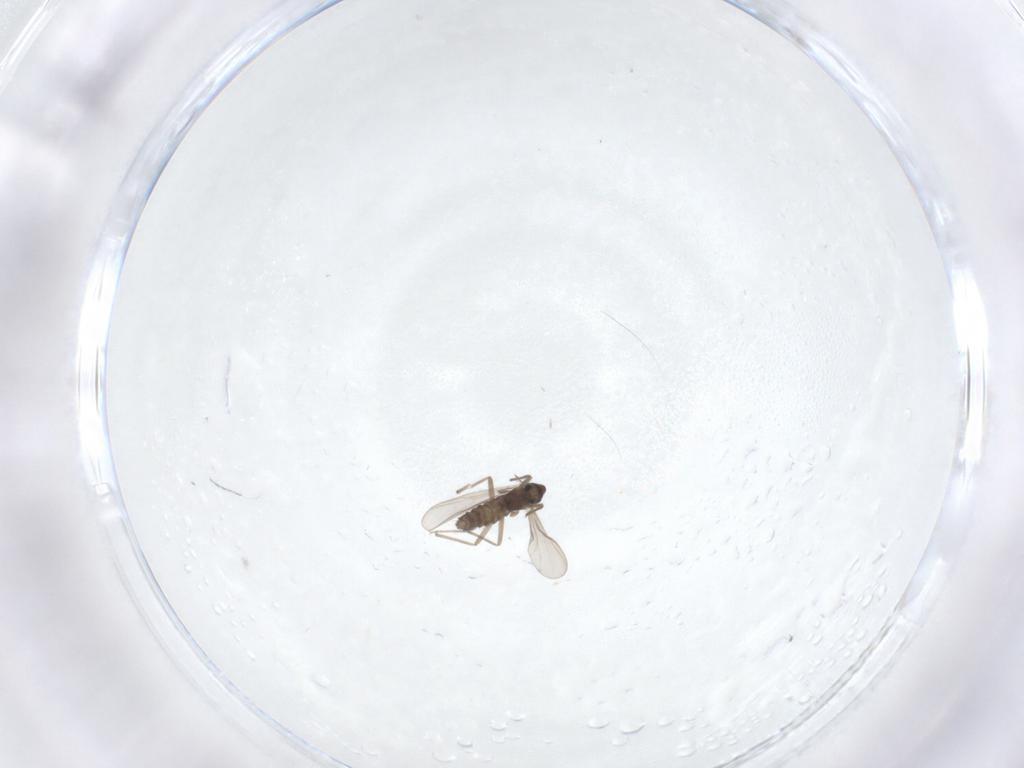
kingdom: Animalia
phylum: Arthropoda
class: Insecta
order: Diptera
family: Chironomidae
